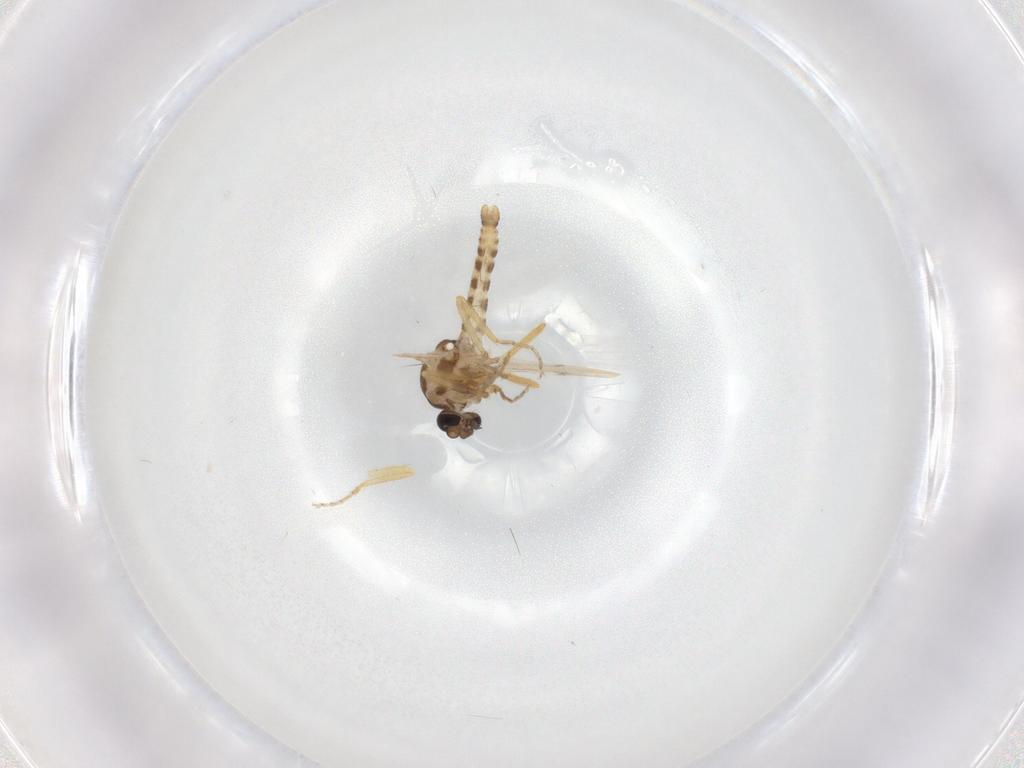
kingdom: Animalia
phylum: Arthropoda
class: Insecta
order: Diptera
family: Ceratopogonidae
